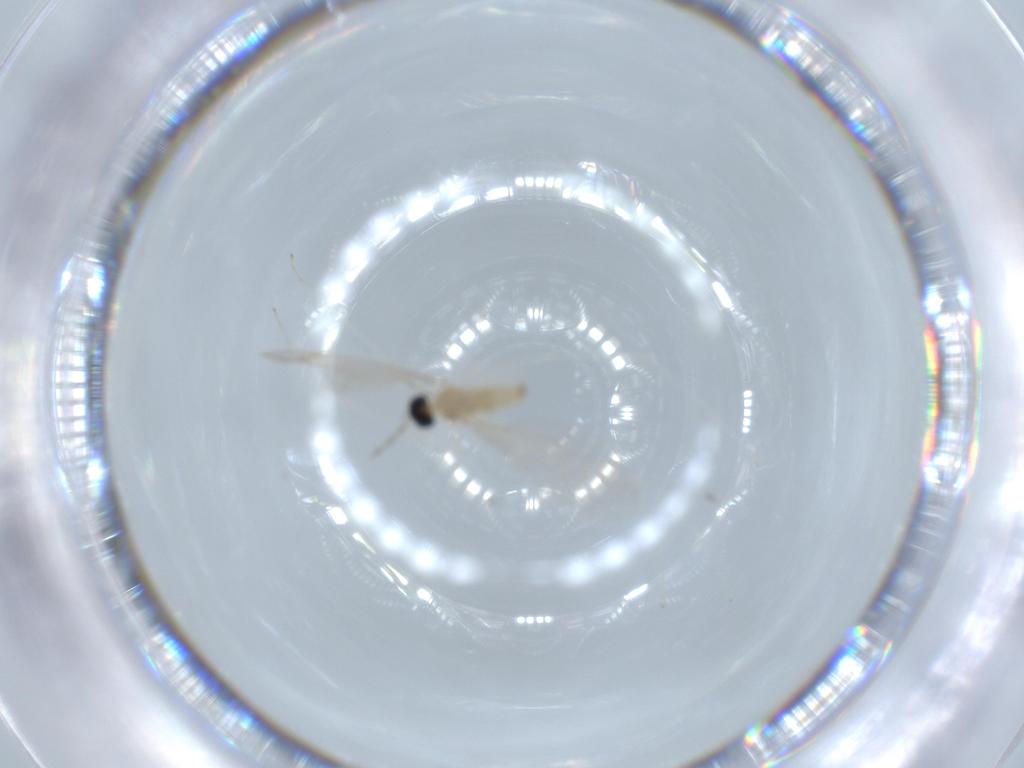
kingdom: Animalia
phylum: Arthropoda
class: Insecta
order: Diptera
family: Cecidomyiidae
